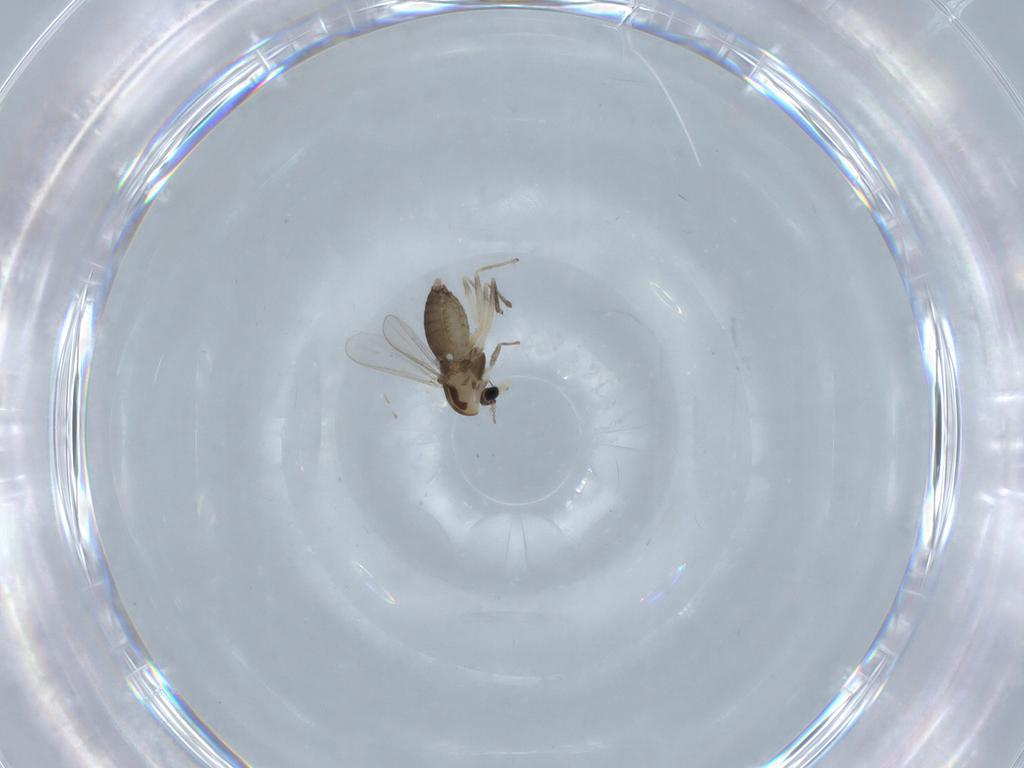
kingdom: Animalia
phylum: Arthropoda
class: Insecta
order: Diptera
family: Chironomidae
